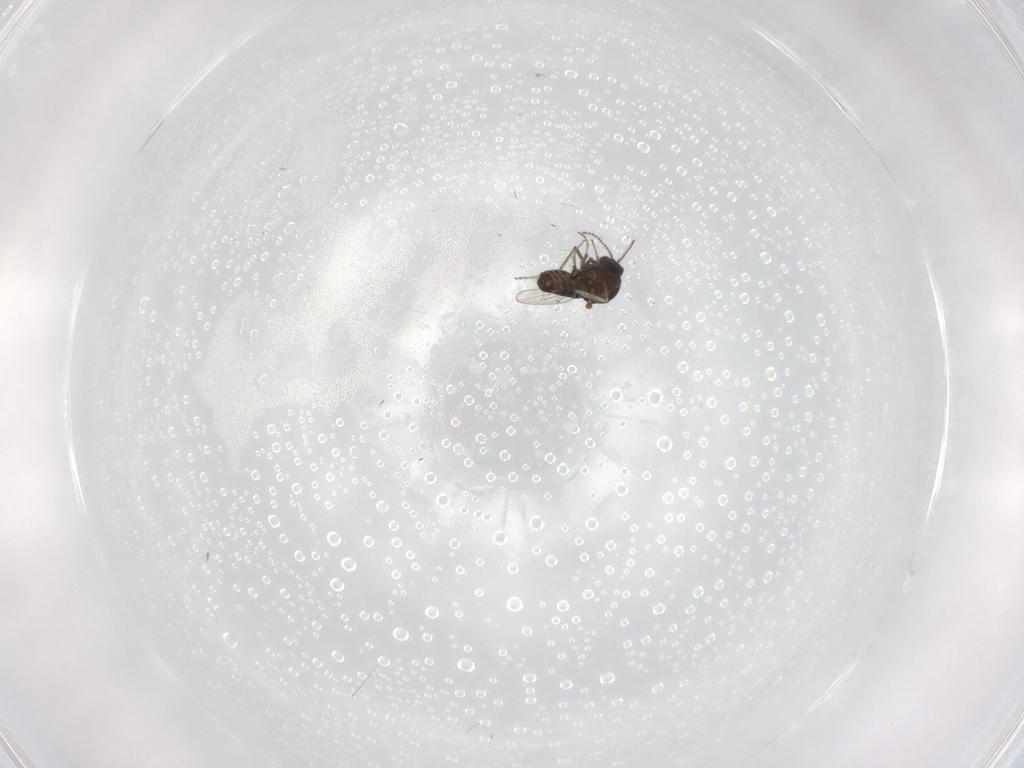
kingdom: Animalia
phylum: Arthropoda
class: Insecta
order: Diptera
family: Ceratopogonidae
